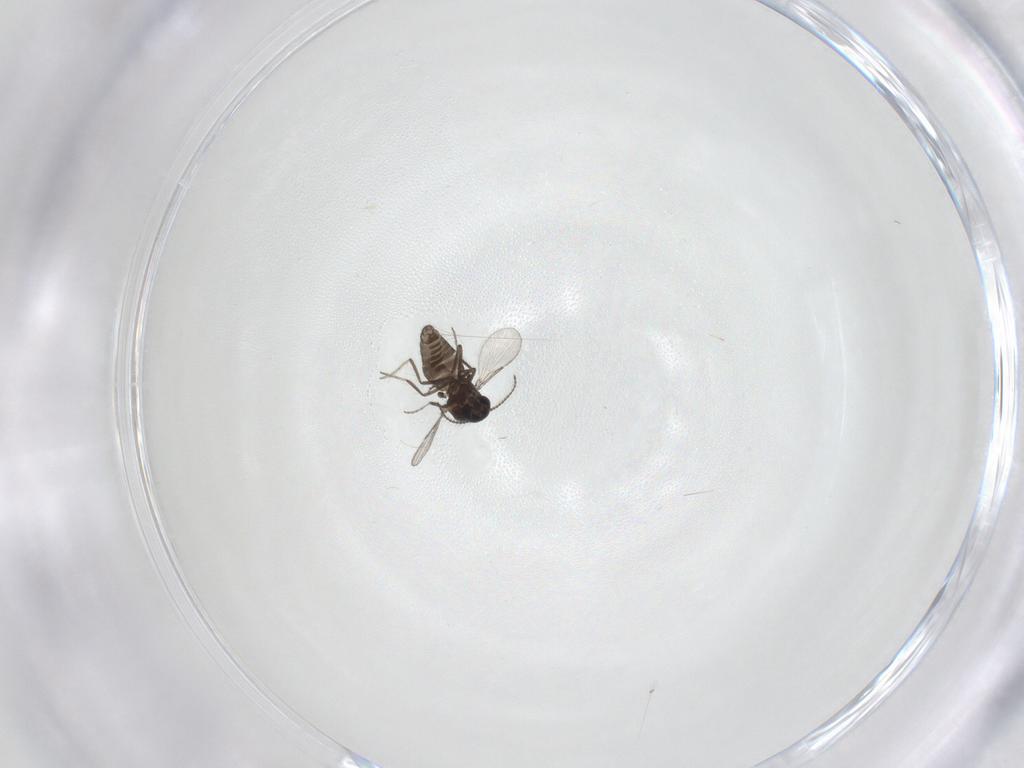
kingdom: Animalia
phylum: Arthropoda
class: Insecta
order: Diptera
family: Ceratopogonidae
